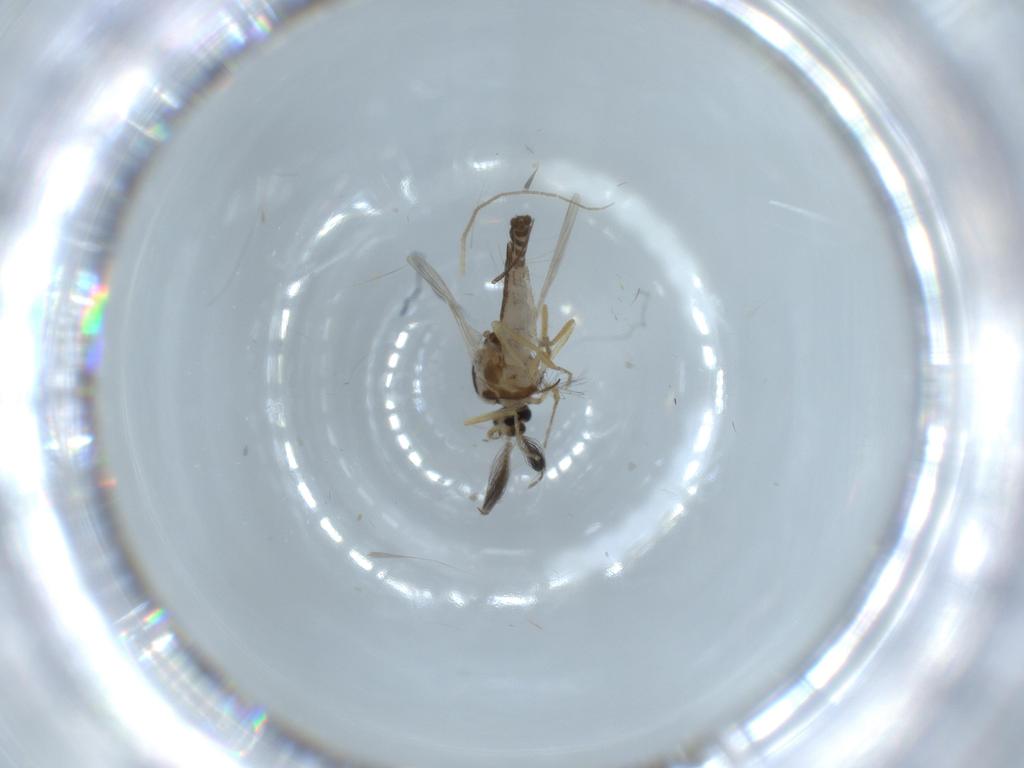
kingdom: Animalia
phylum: Arthropoda
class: Insecta
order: Diptera
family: Ceratopogonidae
